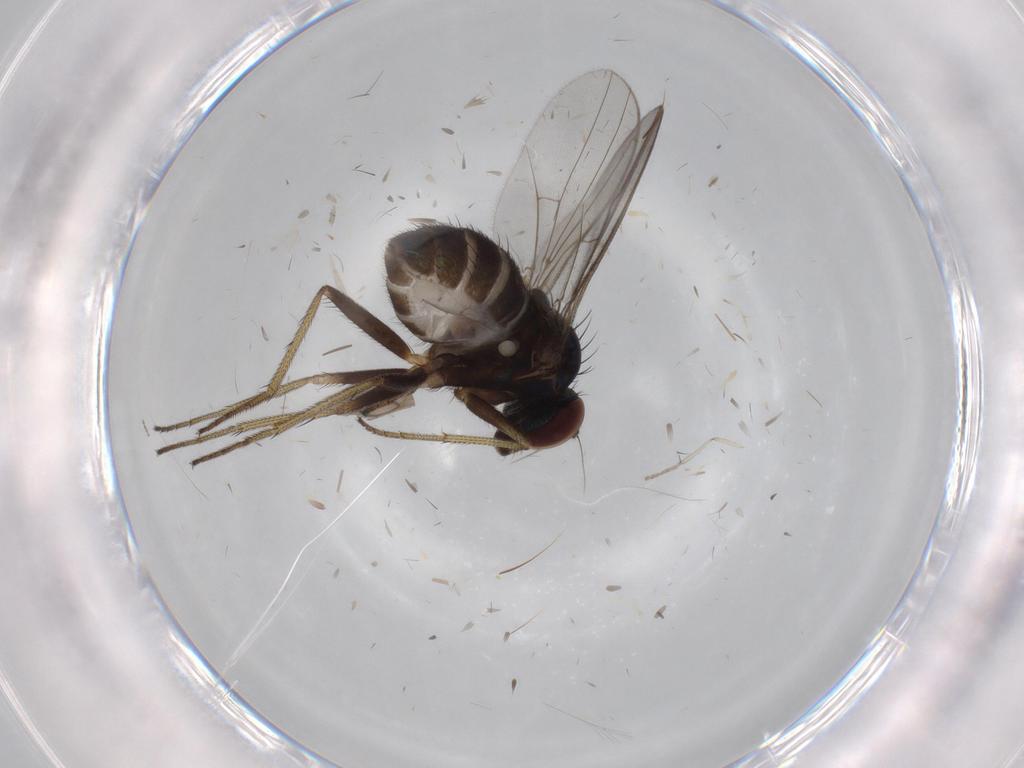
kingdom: Animalia
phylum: Arthropoda
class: Insecta
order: Diptera
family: Dolichopodidae
